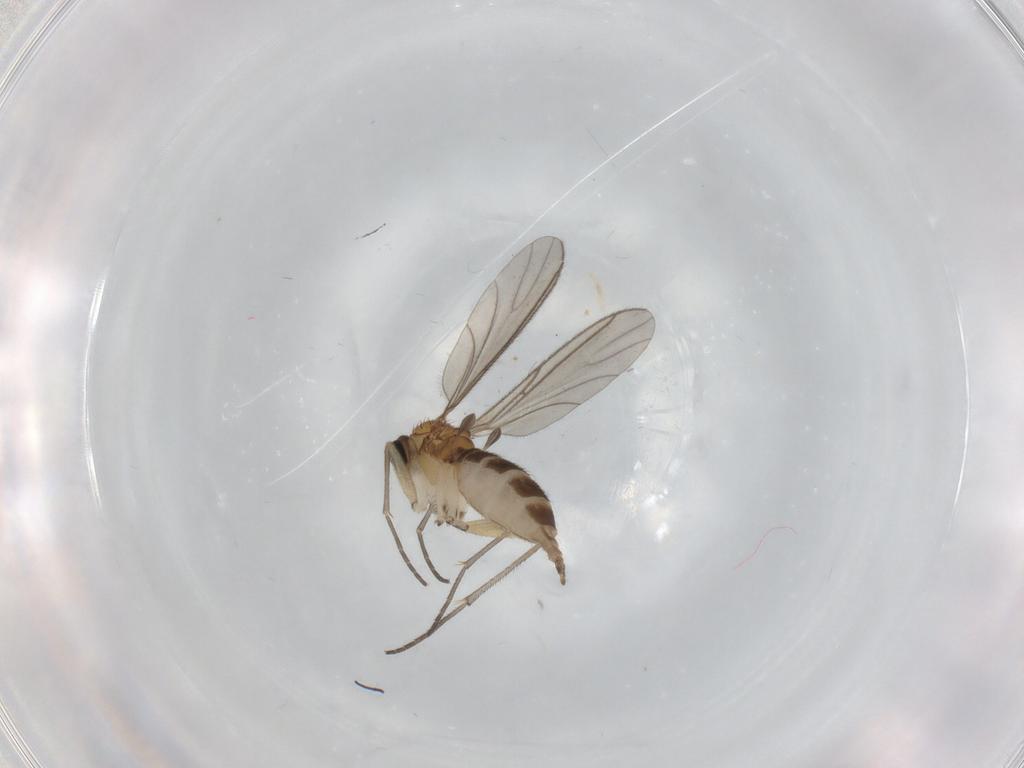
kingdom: Animalia
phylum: Arthropoda
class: Insecta
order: Diptera
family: Sciaridae
